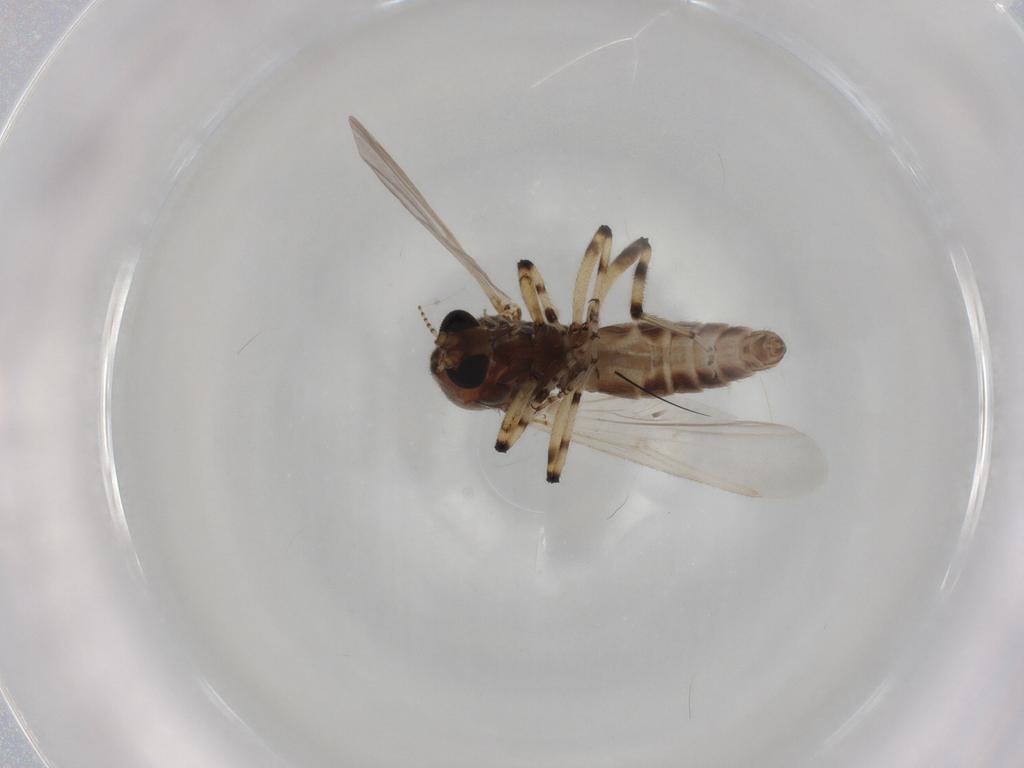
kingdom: Animalia
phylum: Arthropoda
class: Insecta
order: Diptera
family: Ceratopogonidae
